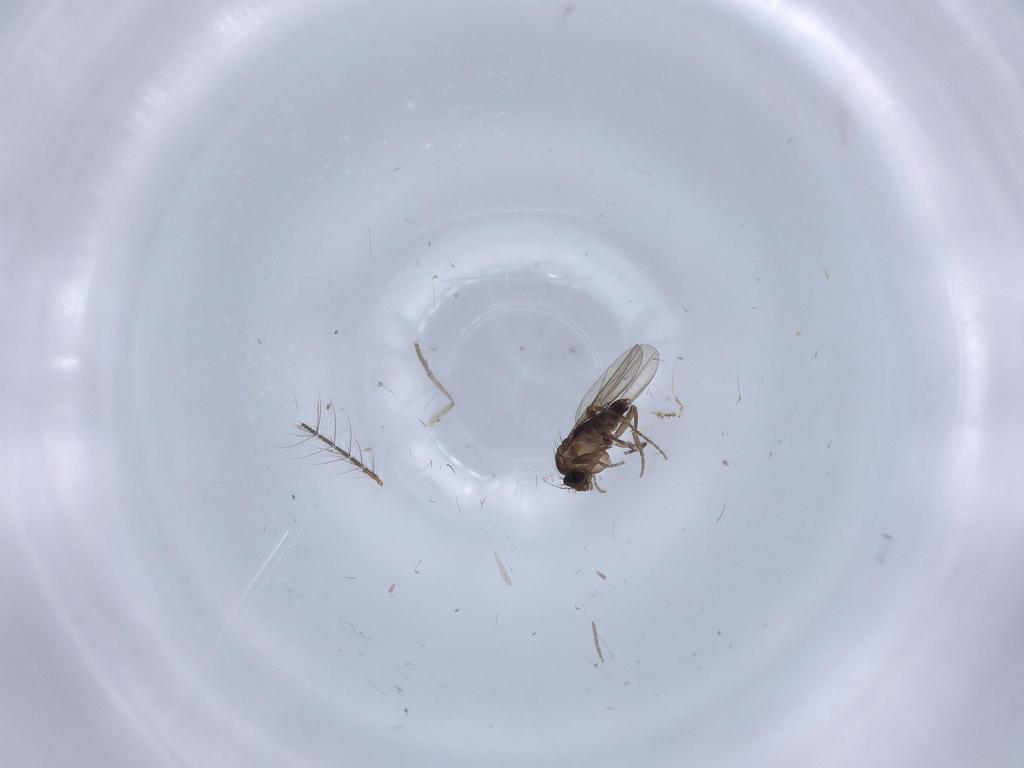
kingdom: Animalia
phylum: Arthropoda
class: Insecta
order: Diptera
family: Phoridae
